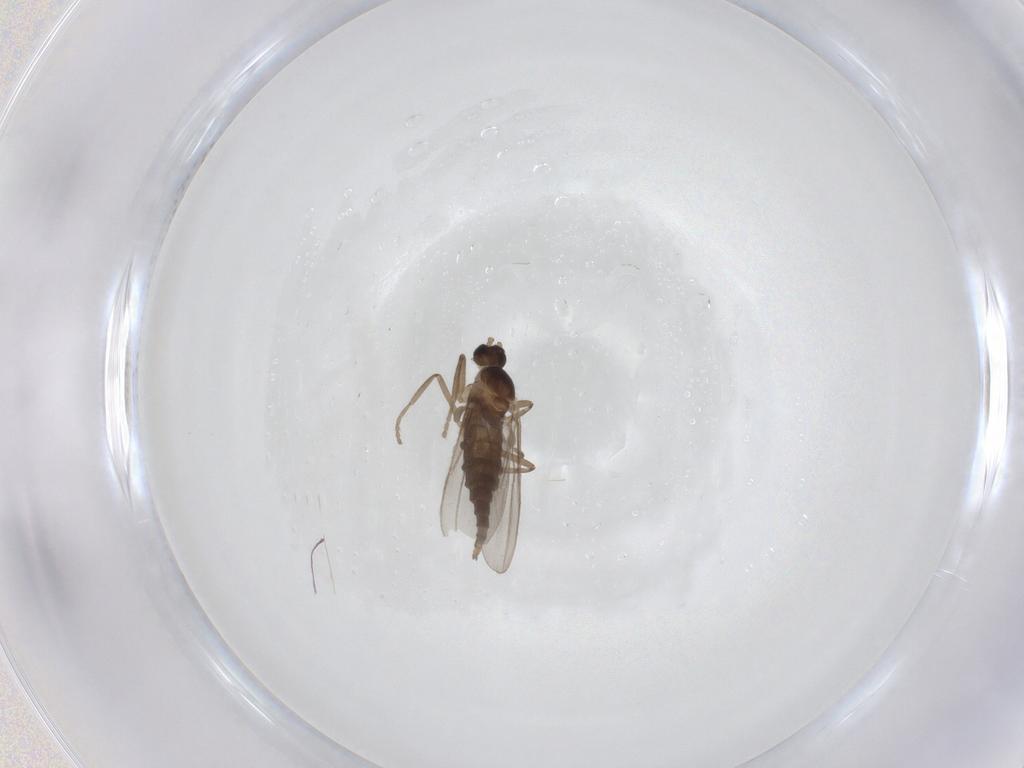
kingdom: Animalia
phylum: Arthropoda
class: Insecta
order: Diptera
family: Cecidomyiidae
